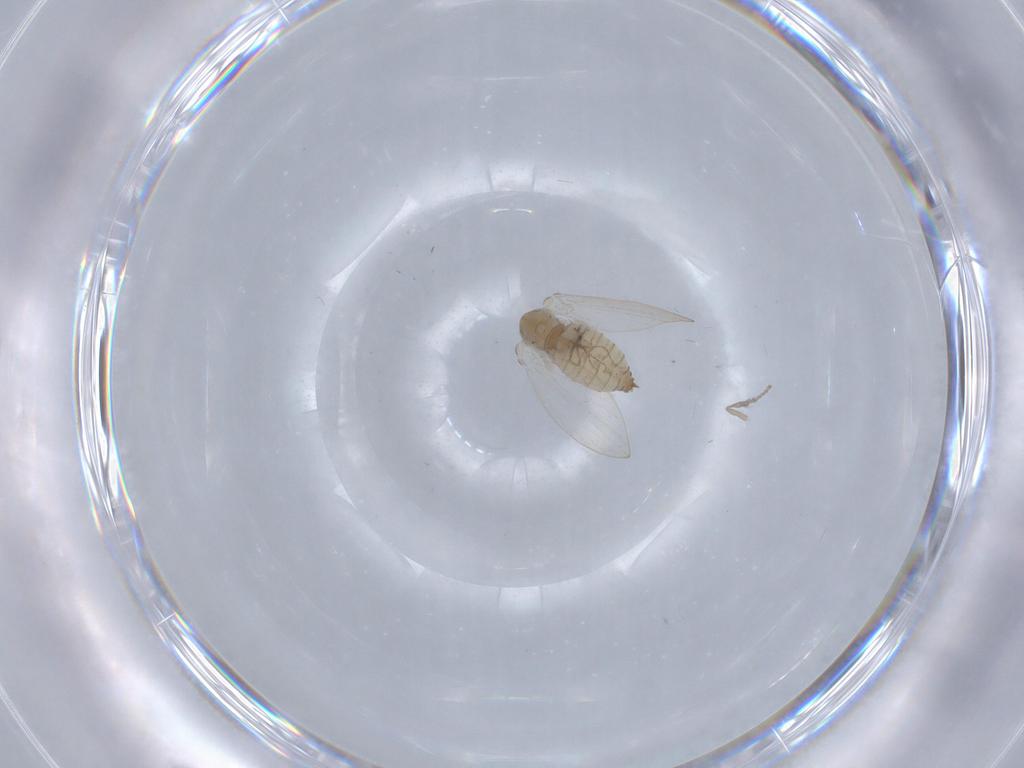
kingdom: Animalia
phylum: Arthropoda
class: Insecta
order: Diptera
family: Psychodidae
